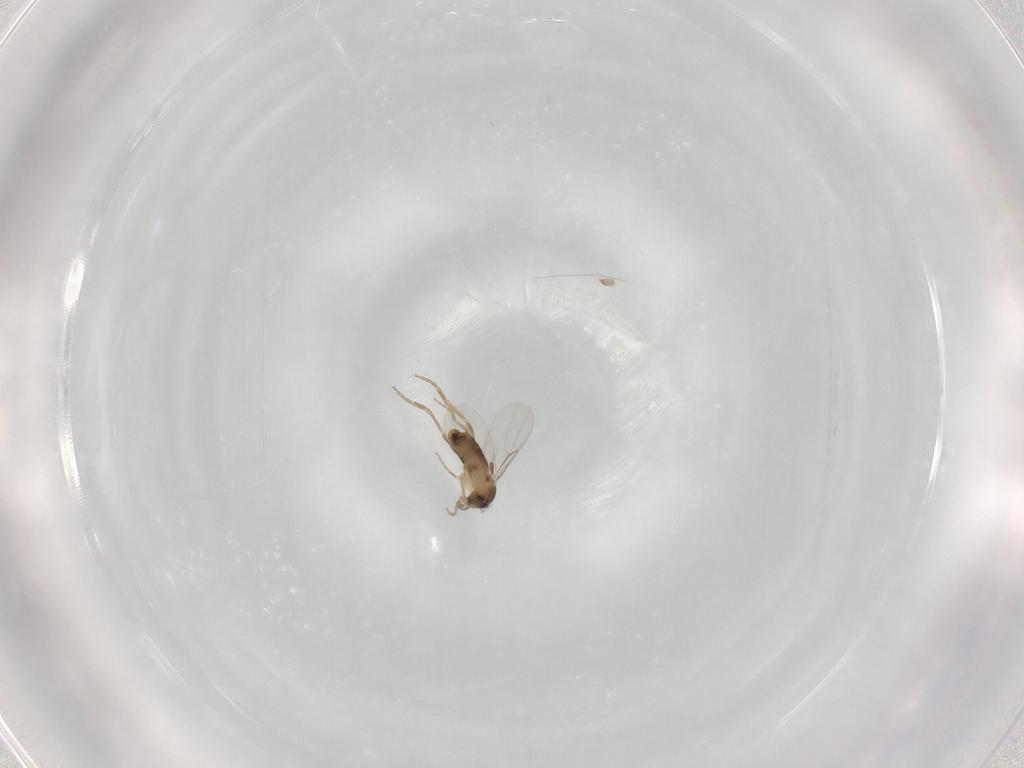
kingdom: Animalia
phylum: Arthropoda
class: Insecta
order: Diptera
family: Phoridae
